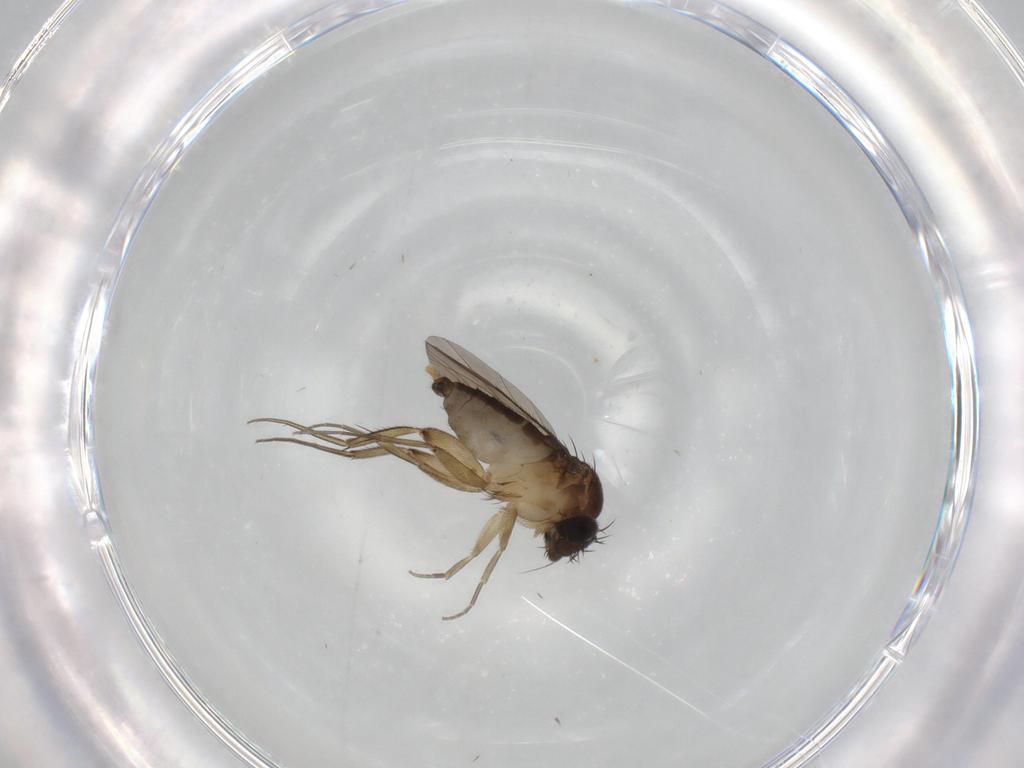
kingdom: Animalia
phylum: Arthropoda
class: Insecta
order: Diptera
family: Phoridae
